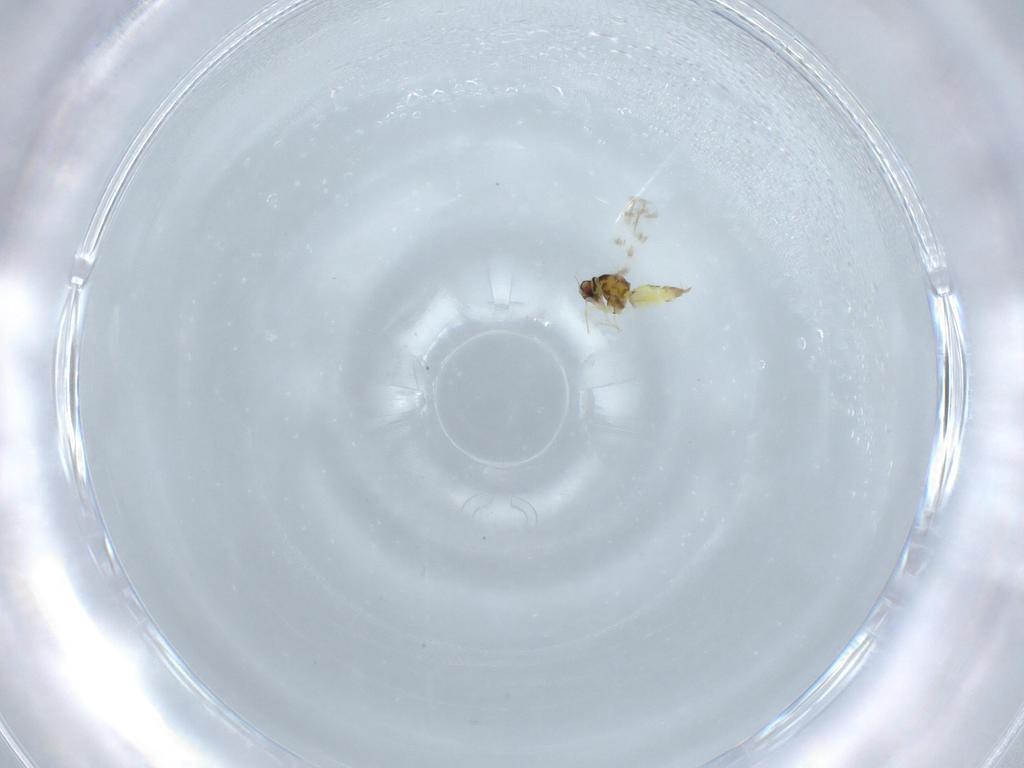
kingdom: Animalia
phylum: Arthropoda
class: Insecta
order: Hemiptera
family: Aleyrodidae
